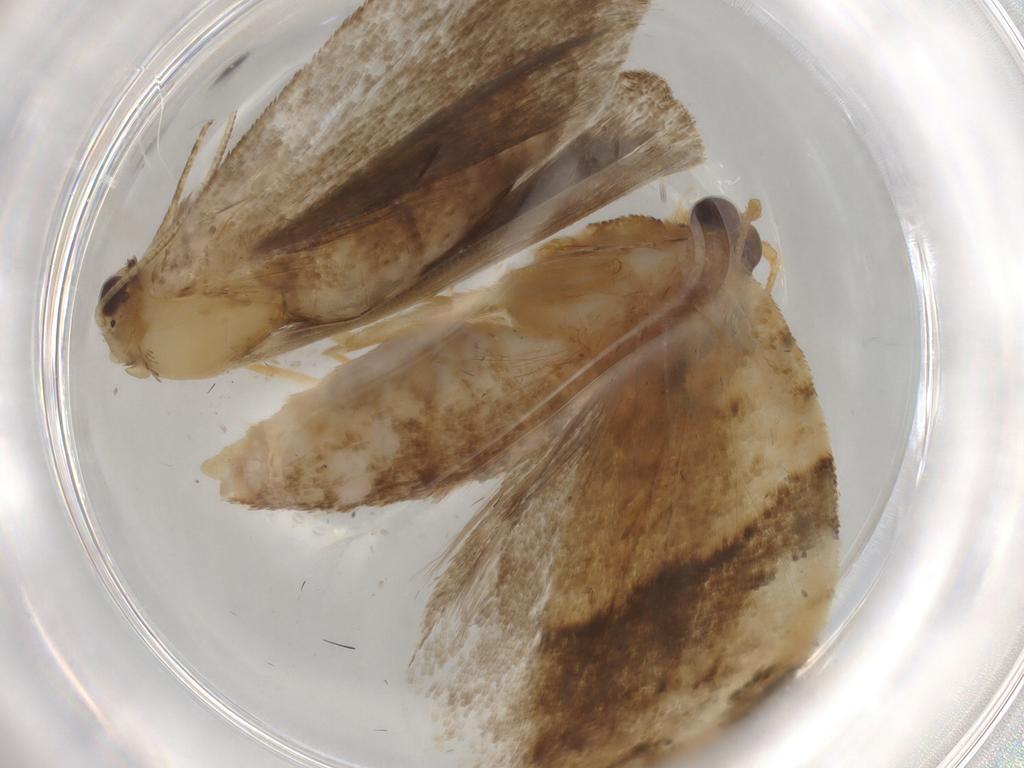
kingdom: Animalia
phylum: Arthropoda
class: Insecta
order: Lepidoptera
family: Tortricidae
